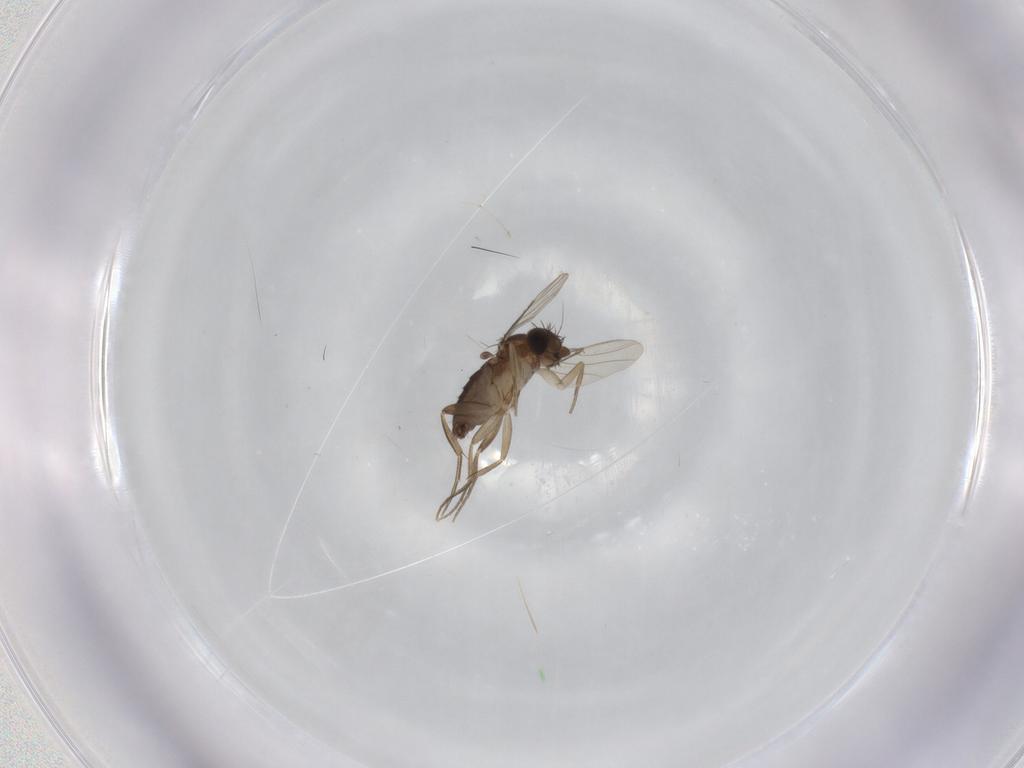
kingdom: Animalia
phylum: Arthropoda
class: Insecta
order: Diptera
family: Phoridae
